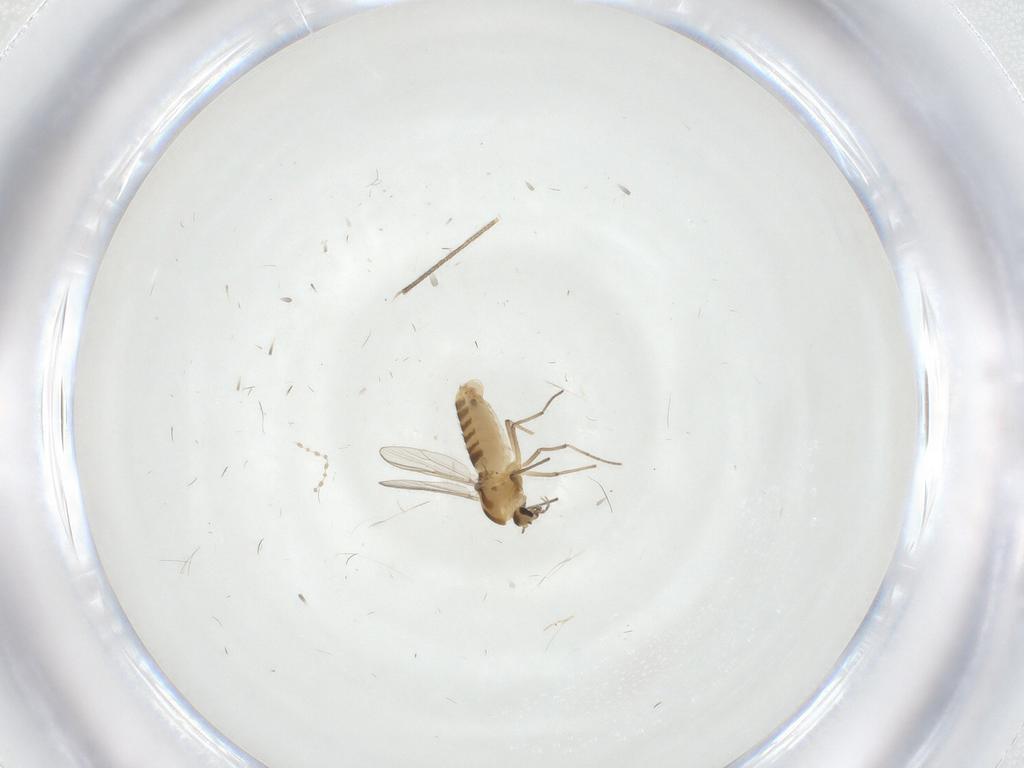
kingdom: Animalia
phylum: Arthropoda
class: Insecta
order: Diptera
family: Keroplatidae
